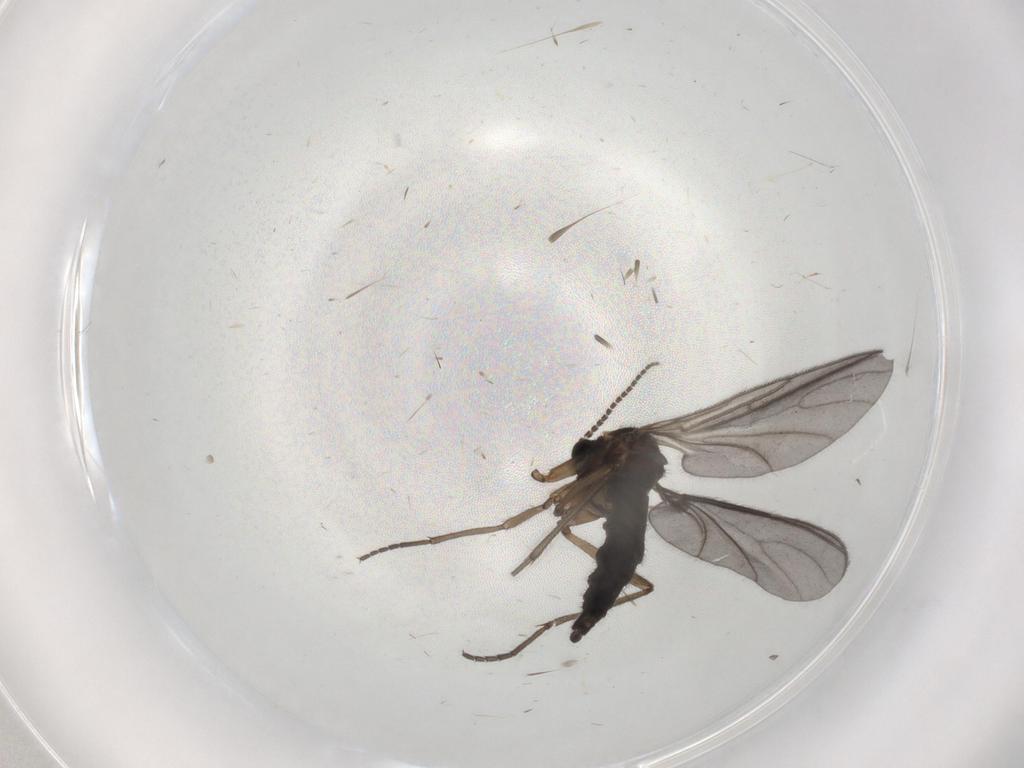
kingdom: Animalia
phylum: Arthropoda
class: Insecta
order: Diptera
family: Sciaridae
